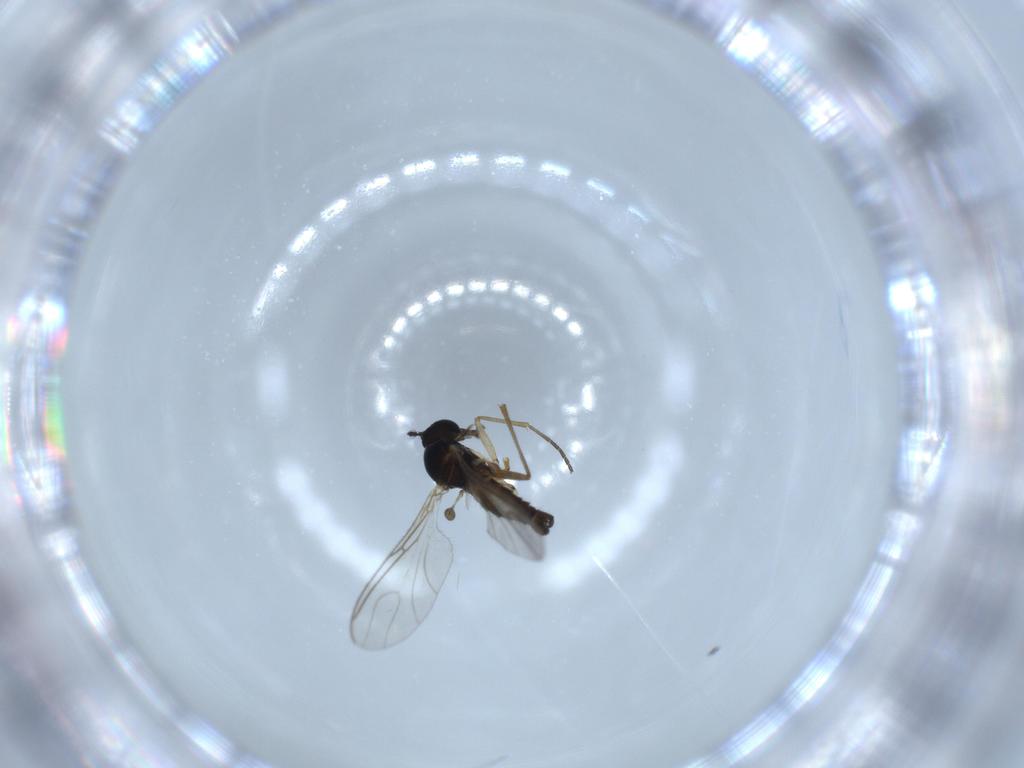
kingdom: Animalia
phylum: Arthropoda
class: Insecta
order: Diptera
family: Sciaridae
